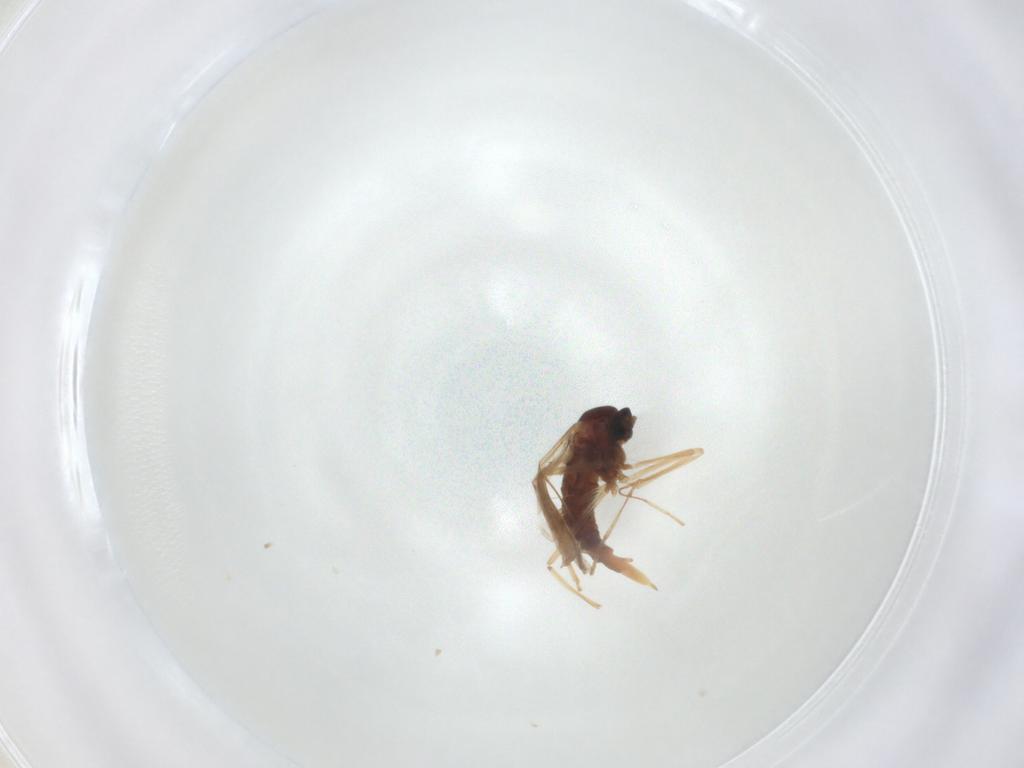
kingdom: Animalia
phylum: Arthropoda
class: Insecta
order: Diptera
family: Cecidomyiidae
